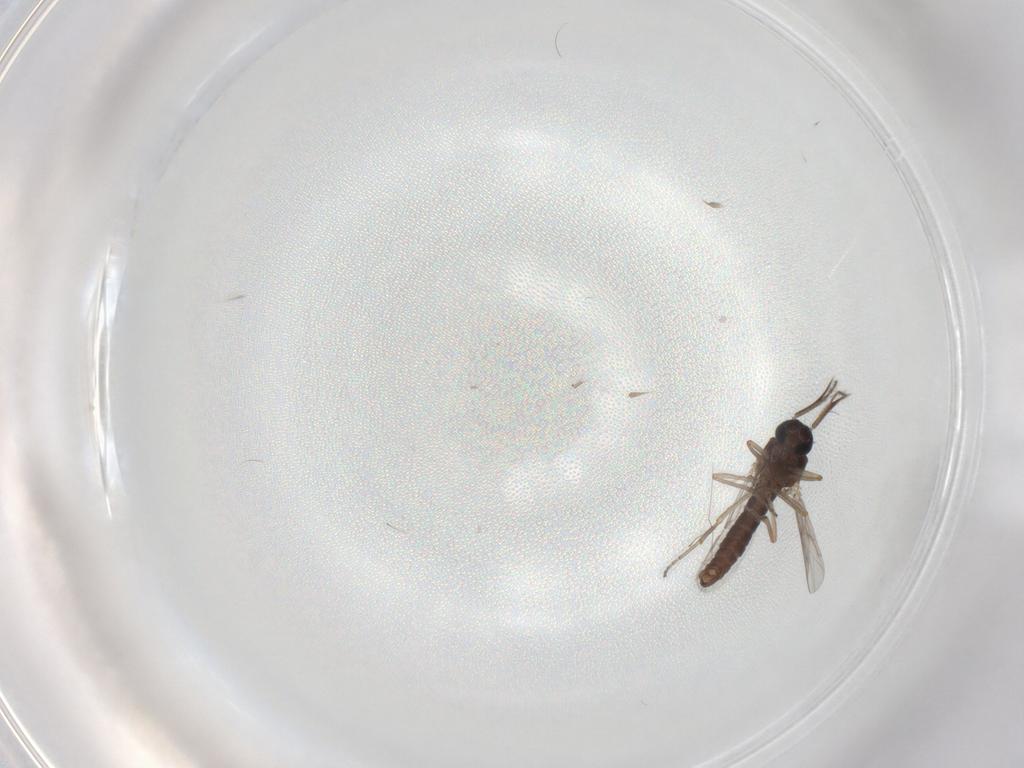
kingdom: Animalia
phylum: Arthropoda
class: Insecta
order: Diptera
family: Ceratopogonidae
